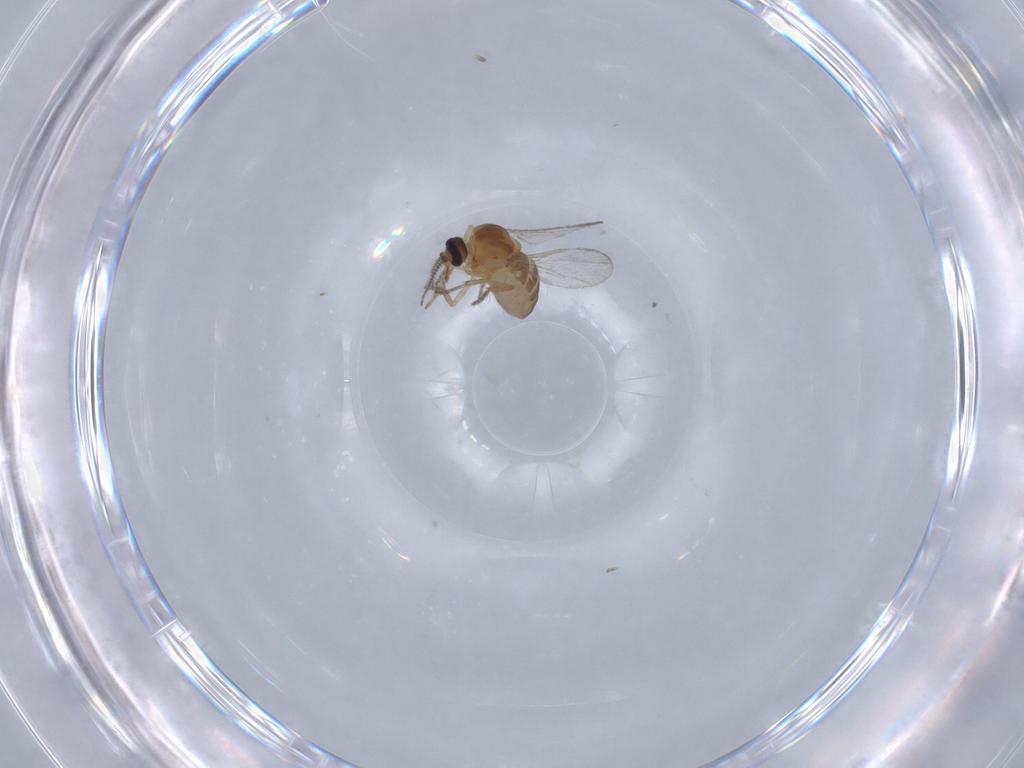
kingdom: Animalia
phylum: Arthropoda
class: Insecta
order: Diptera
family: Ceratopogonidae
